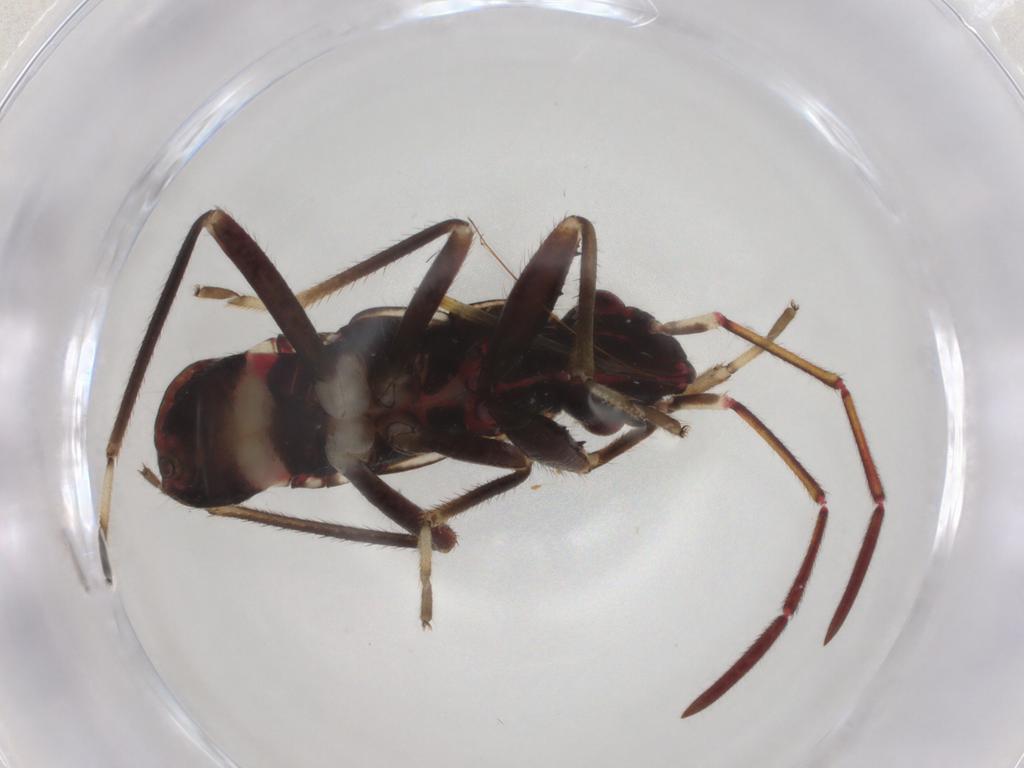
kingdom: Animalia
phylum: Arthropoda
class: Insecta
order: Hemiptera
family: Rhyparochromidae
